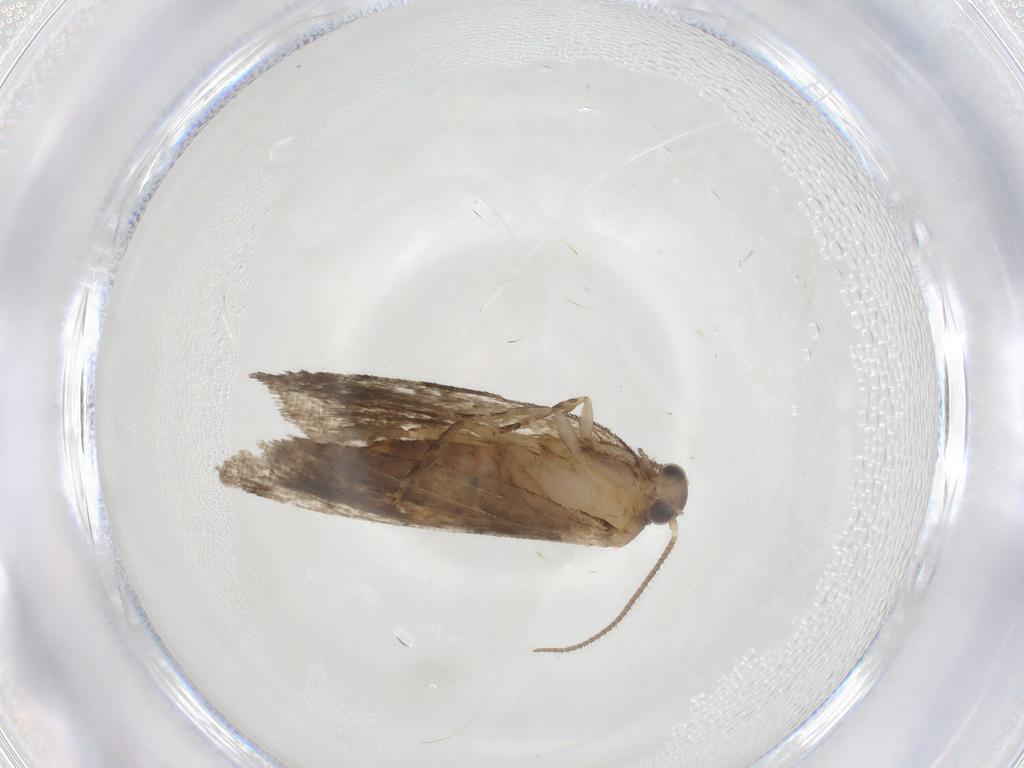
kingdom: Animalia
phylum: Arthropoda
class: Insecta
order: Lepidoptera
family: Tortricidae
